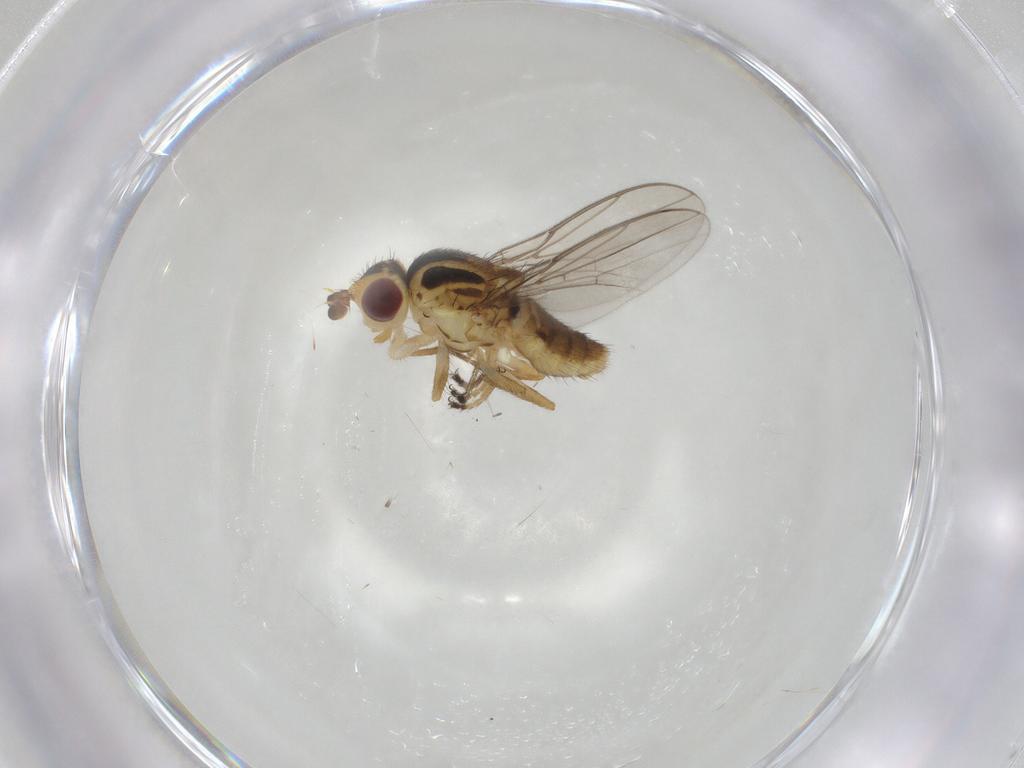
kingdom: Animalia
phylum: Arthropoda
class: Insecta
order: Diptera
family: Chloropidae
